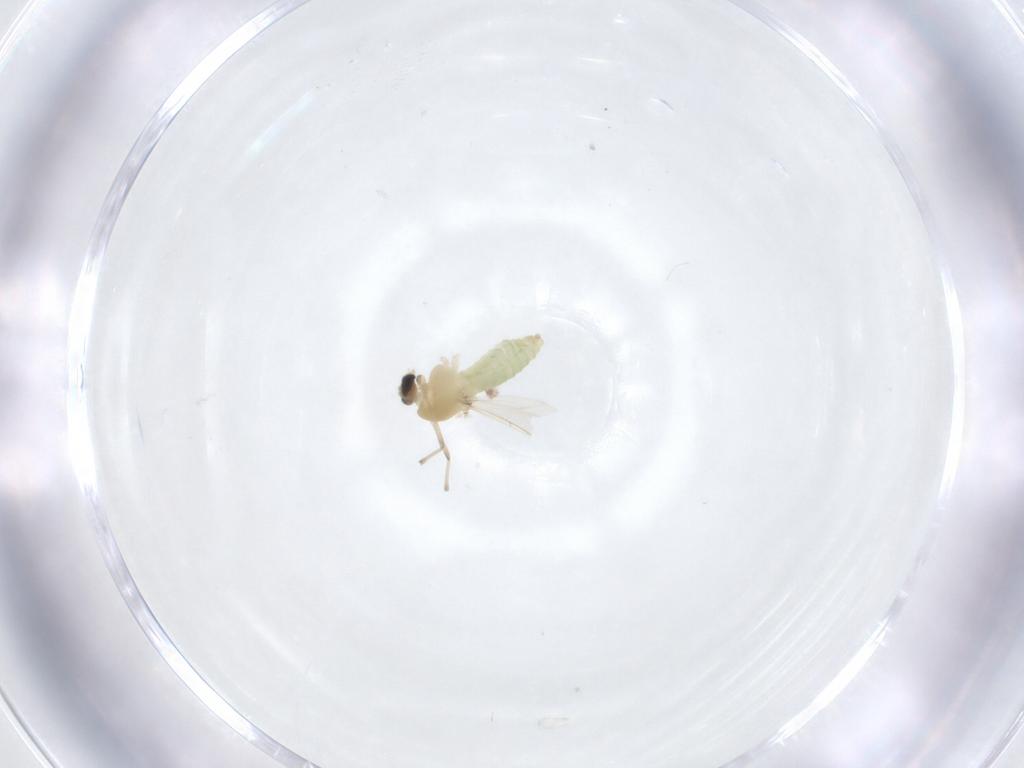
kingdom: Animalia
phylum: Arthropoda
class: Insecta
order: Diptera
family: Chironomidae
